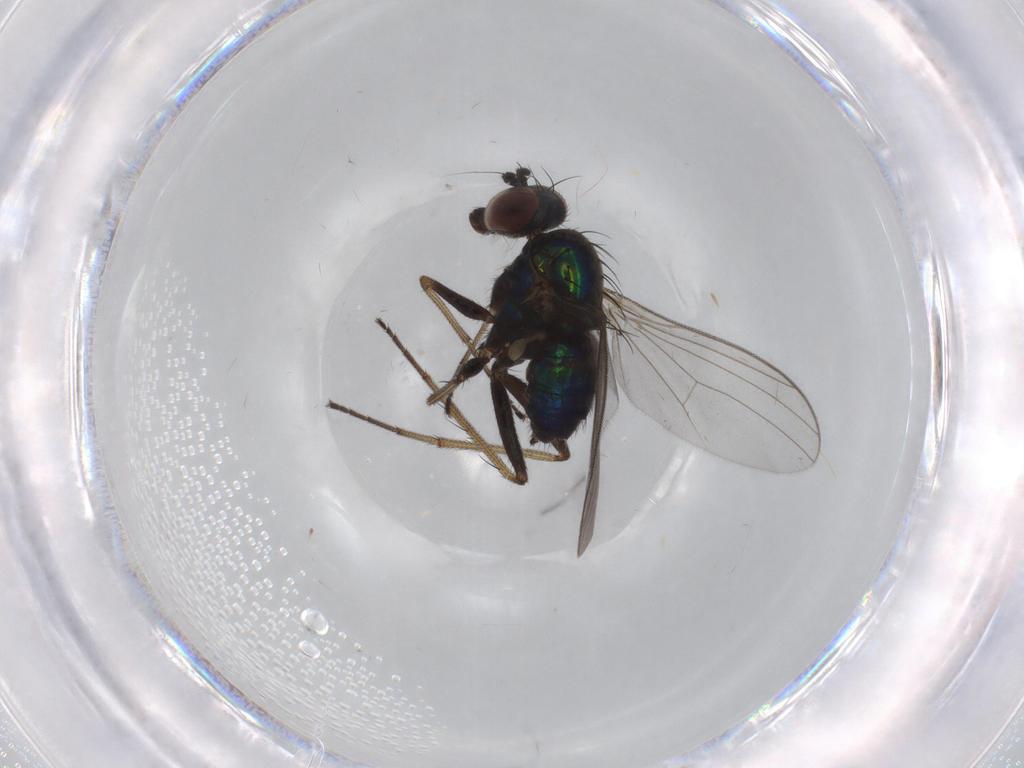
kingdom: Animalia
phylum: Arthropoda
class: Insecta
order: Diptera
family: Dolichopodidae
